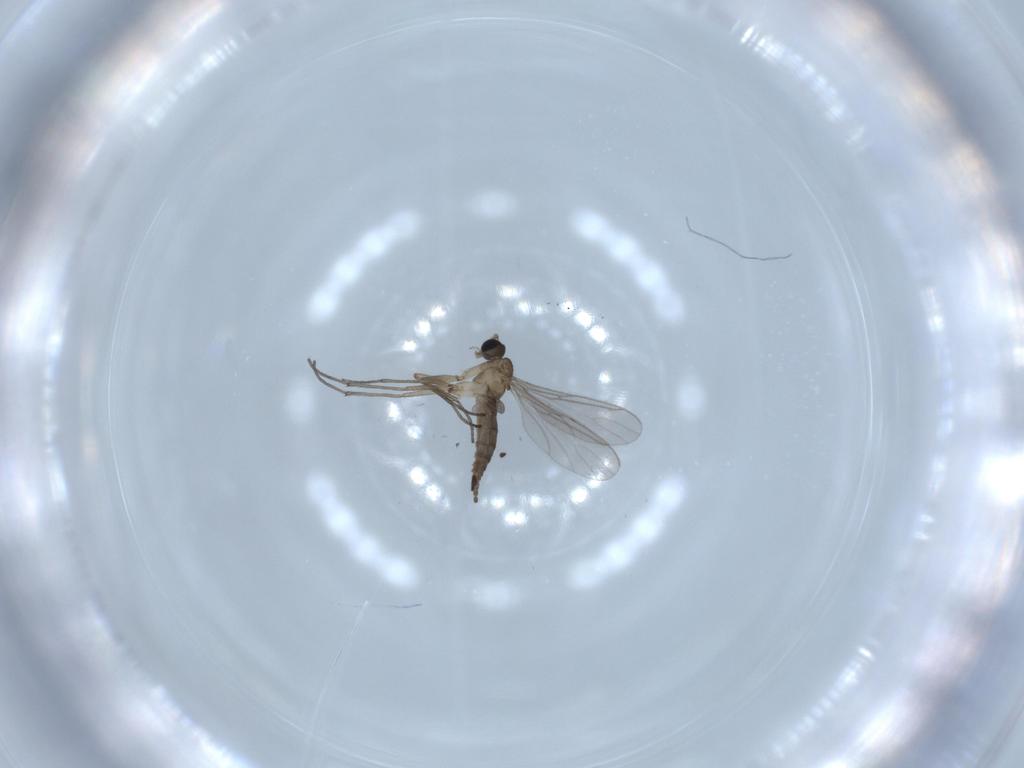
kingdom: Animalia
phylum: Arthropoda
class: Insecta
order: Diptera
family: Sciaridae
